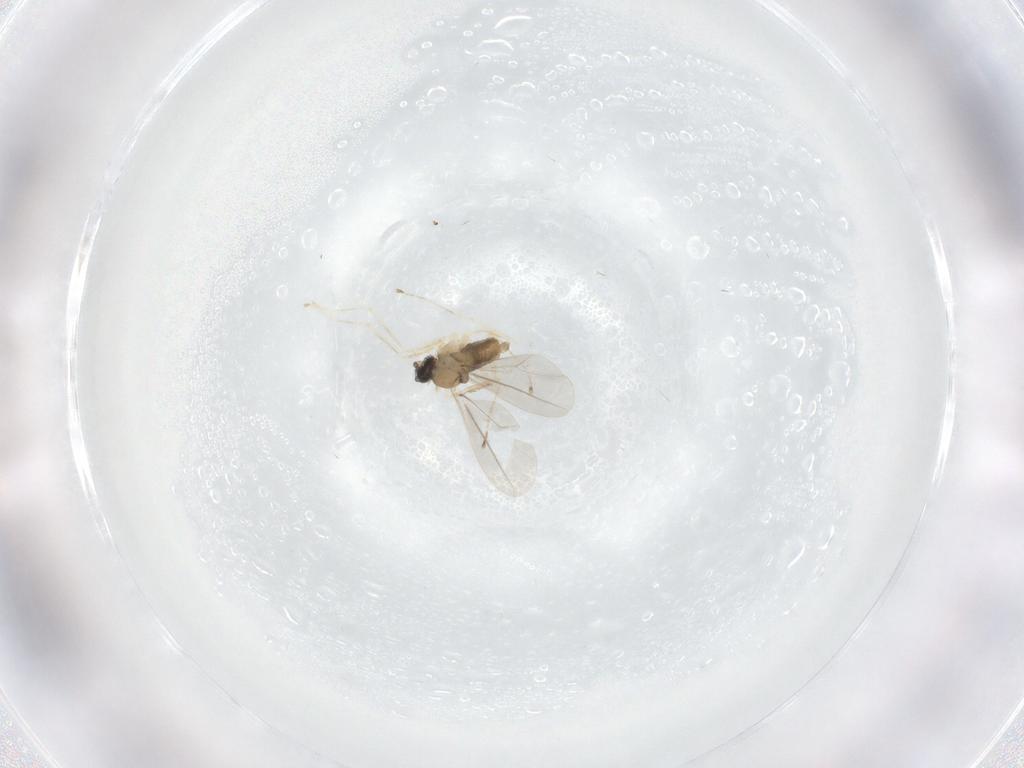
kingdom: Animalia
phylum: Arthropoda
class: Insecta
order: Diptera
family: Cecidomyiidae
